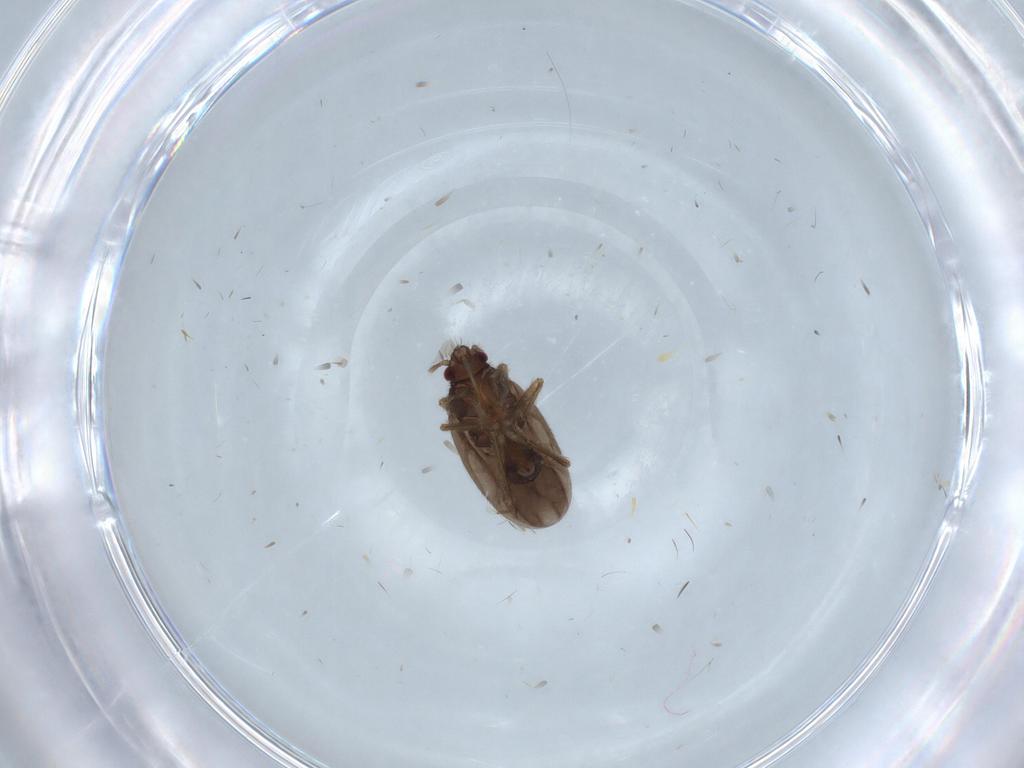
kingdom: Animalia
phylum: Arthropoda
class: Insecta
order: Hemiptera
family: Ceratocombidae
